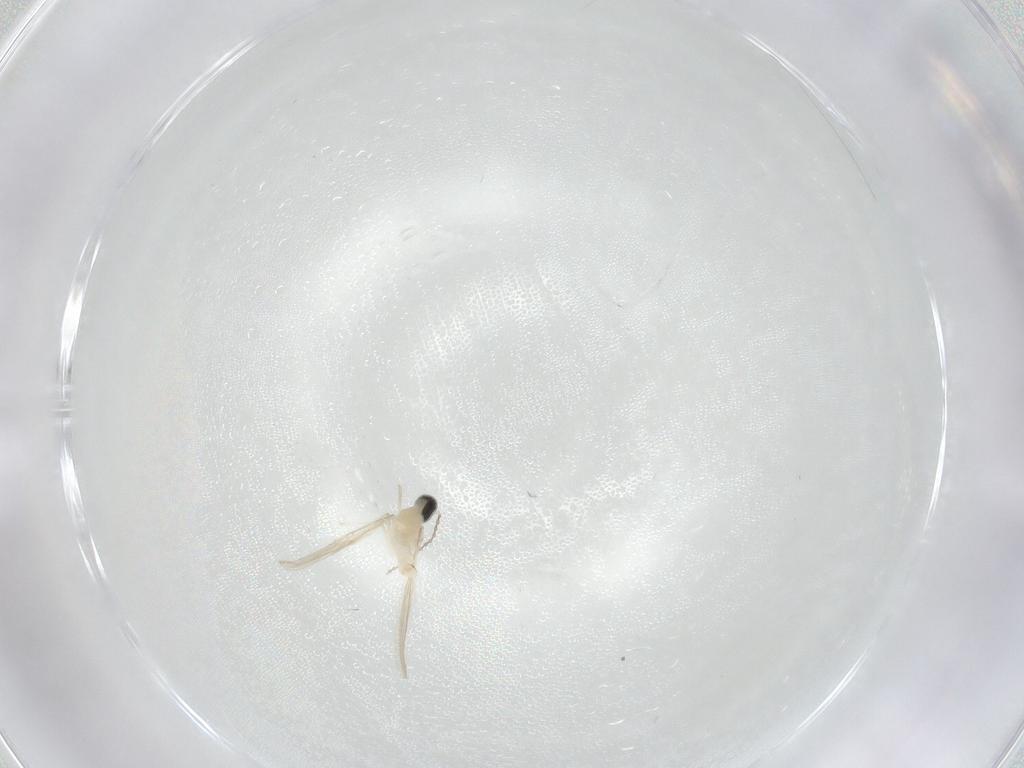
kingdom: Animalia
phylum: Arthropoda
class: Insecta
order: Diptera
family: Cecidomyiidae
